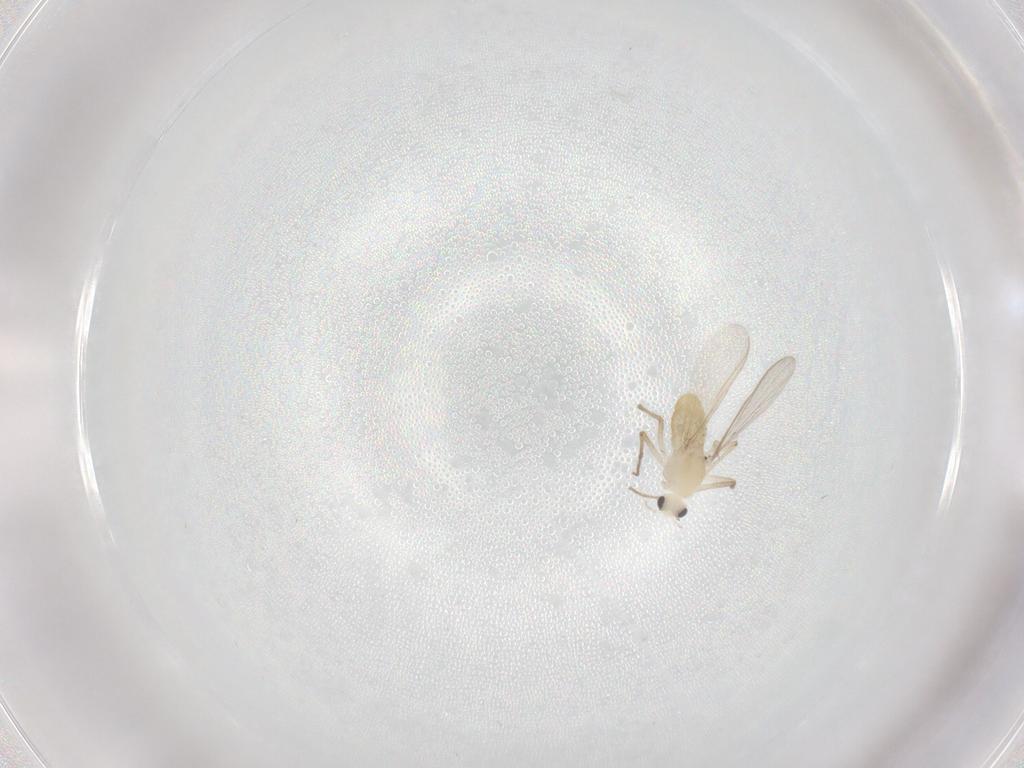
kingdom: Animalia
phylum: Arthropoda
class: Insecta
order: Diptera
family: Chironomidae
